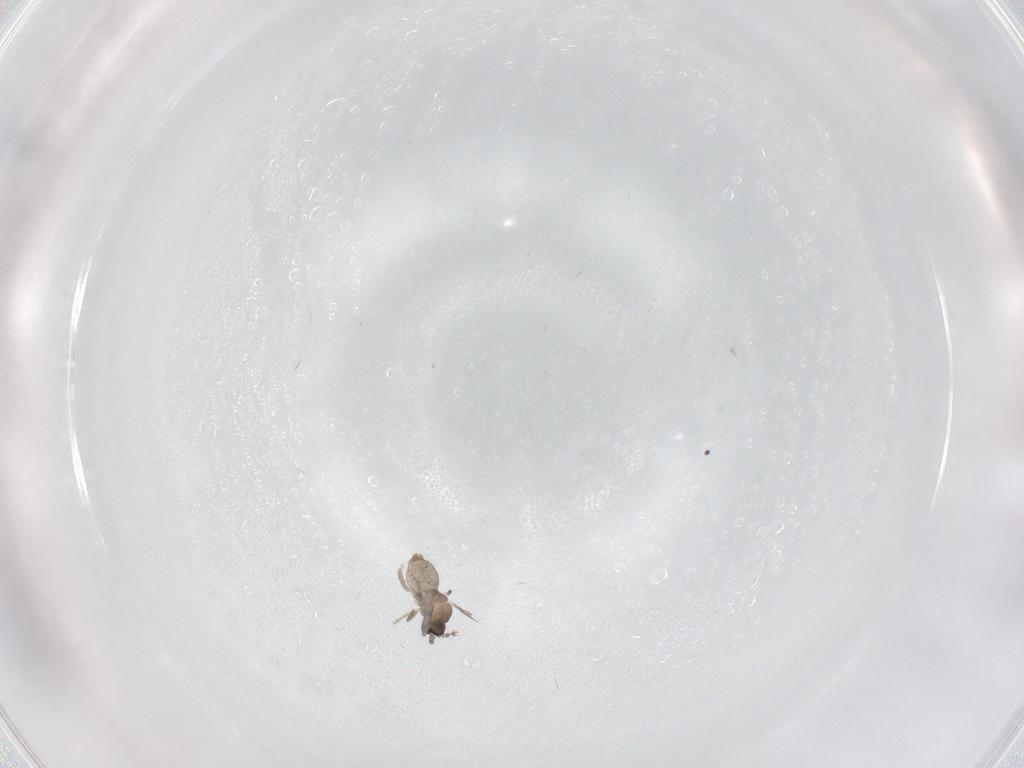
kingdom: Animalia
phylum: Arthropoda
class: Insecta
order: Diptera
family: Cecidomyiidae
